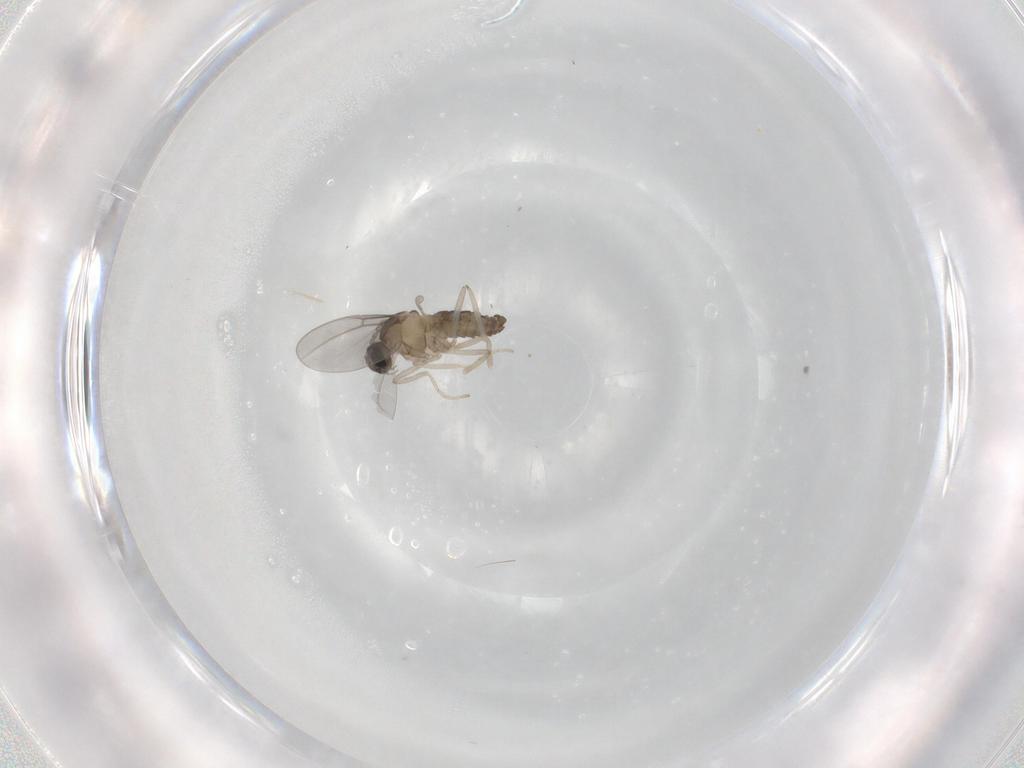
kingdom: Animalia
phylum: Arthropoda
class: Insecta
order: Diptera
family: Cecidomyiidae
